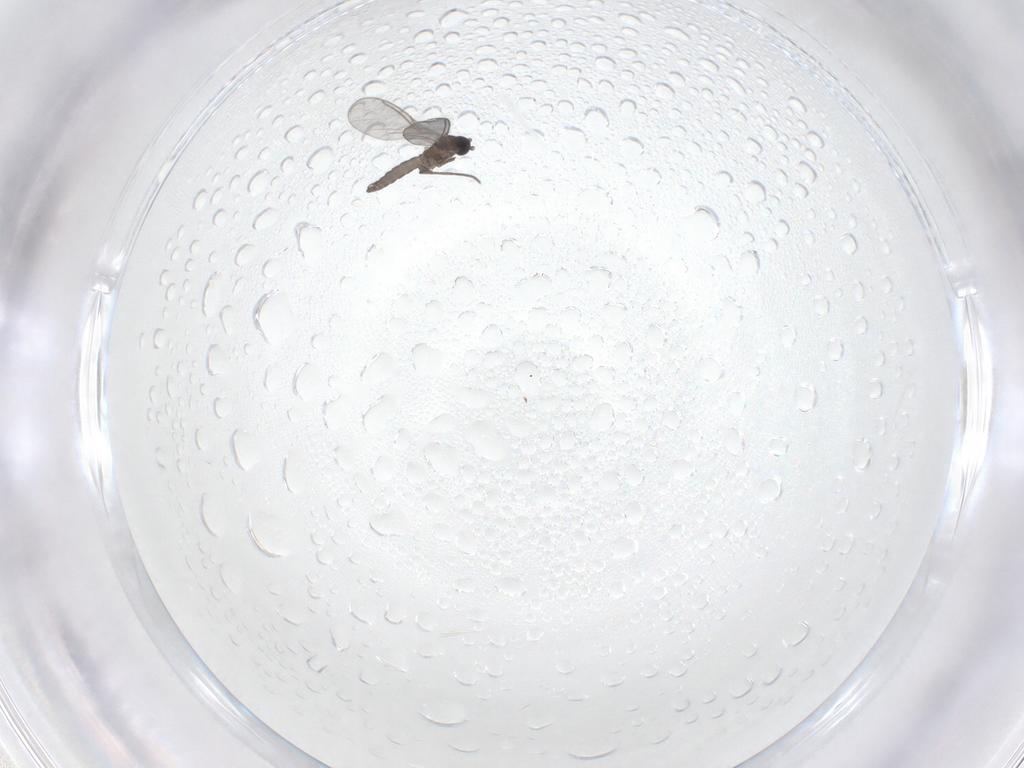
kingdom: Animalia
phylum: Arthropoda
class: Insecta
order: Diptera
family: Sciaridae
